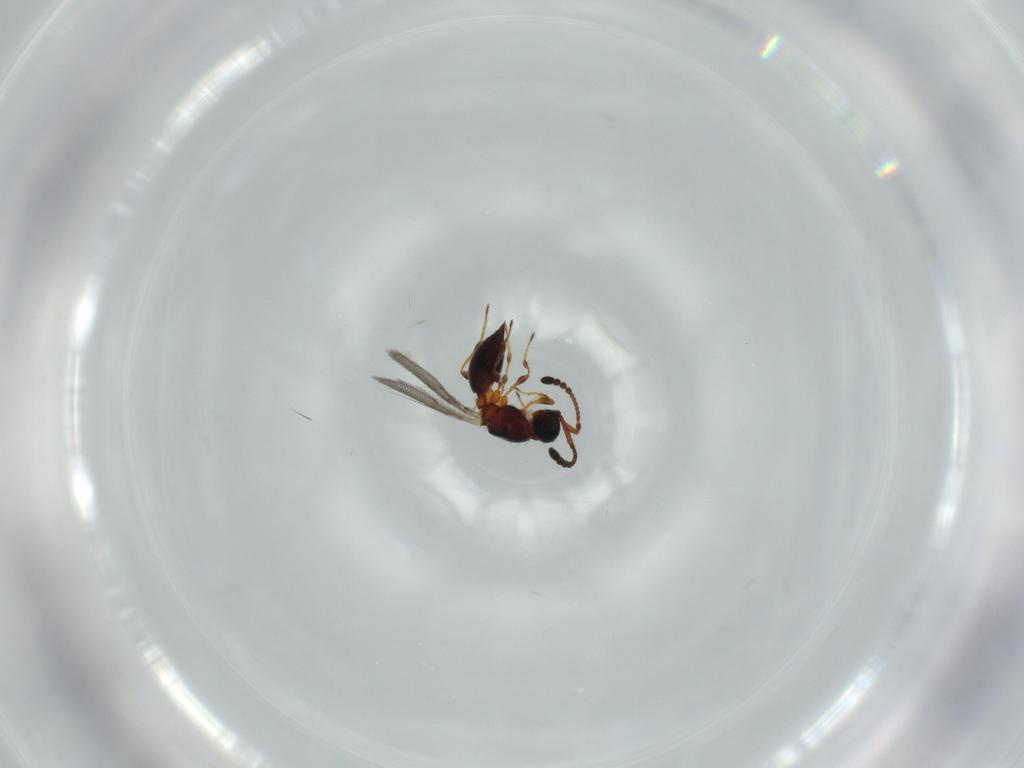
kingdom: Animalia
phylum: Arthropoda
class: Insecta
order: Hymenoptera
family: Diapriidae
